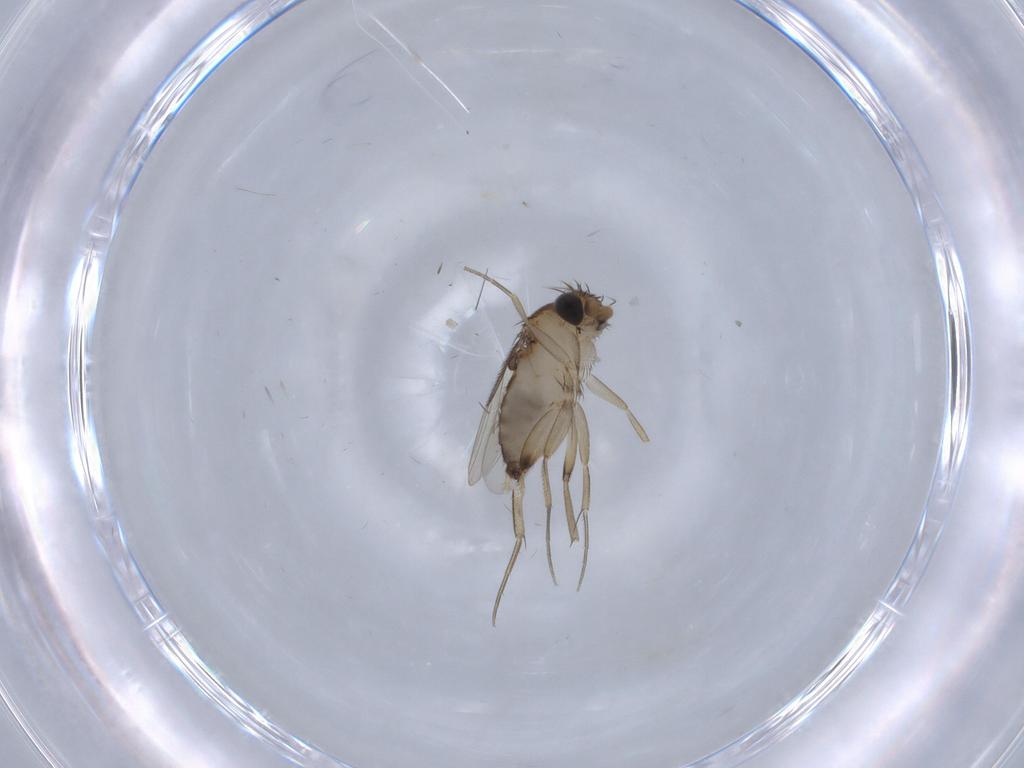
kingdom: Animalia
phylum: Arthropoda
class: Insecta
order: Diptera
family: Phoridae
